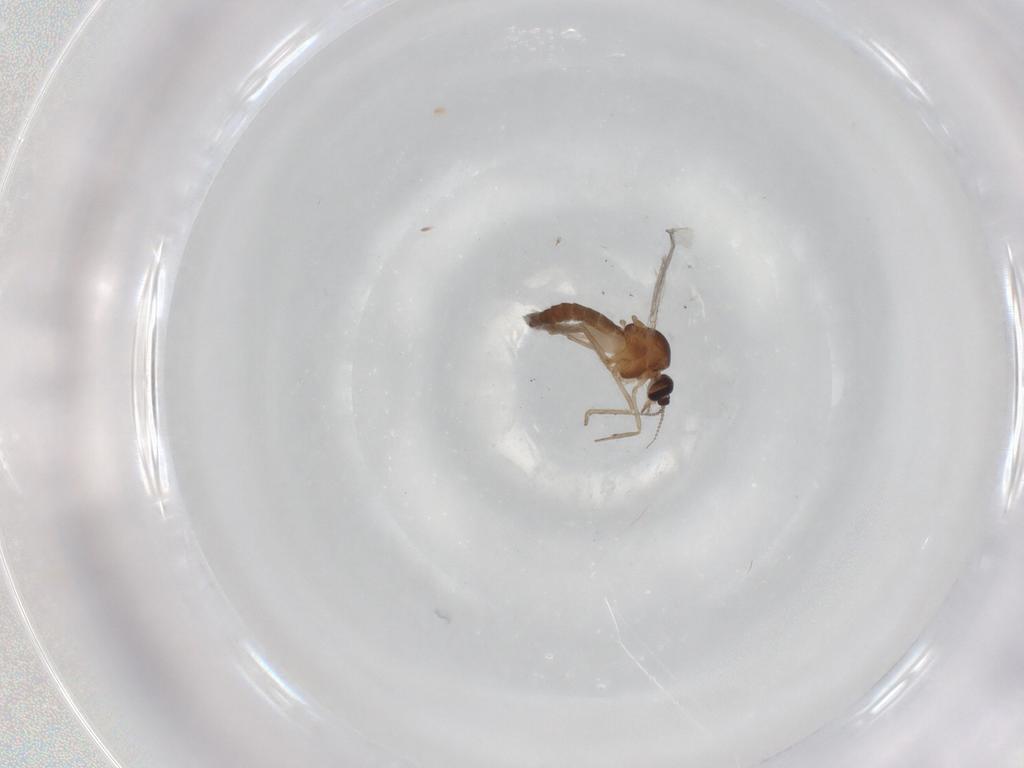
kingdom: Animalia
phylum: Arthropoda
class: Insecta
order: Diptera
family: Ceratopogonidae
